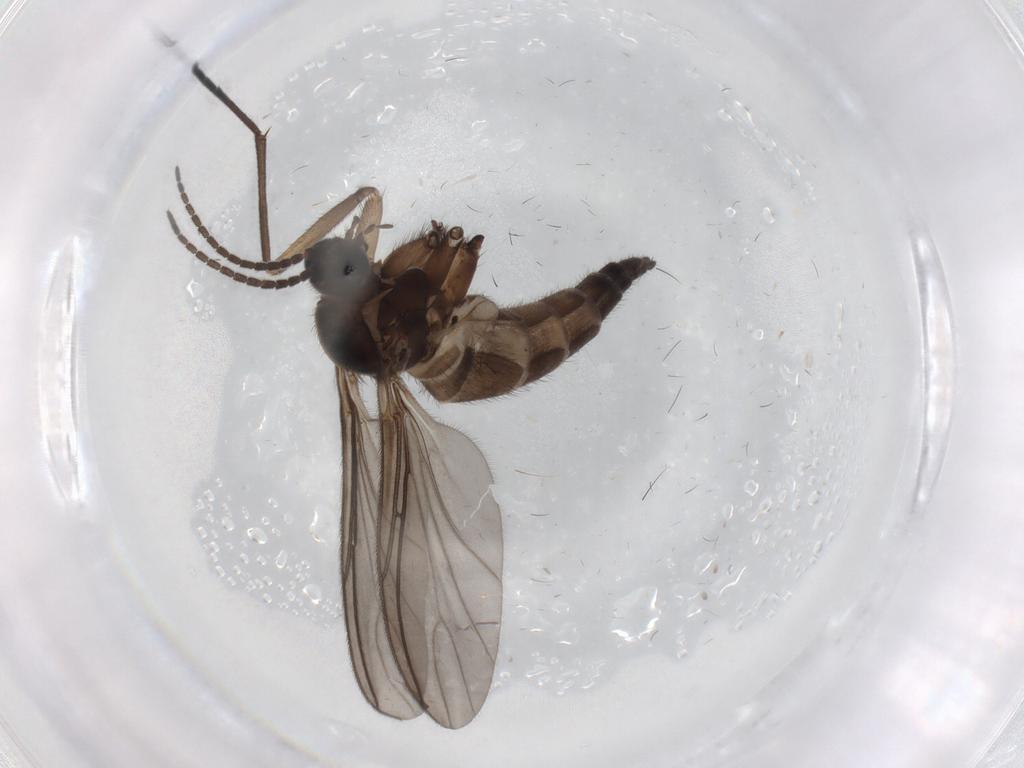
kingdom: Animalia
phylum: Arthropoda
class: Insecta
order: Diptera
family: Sciaridae
